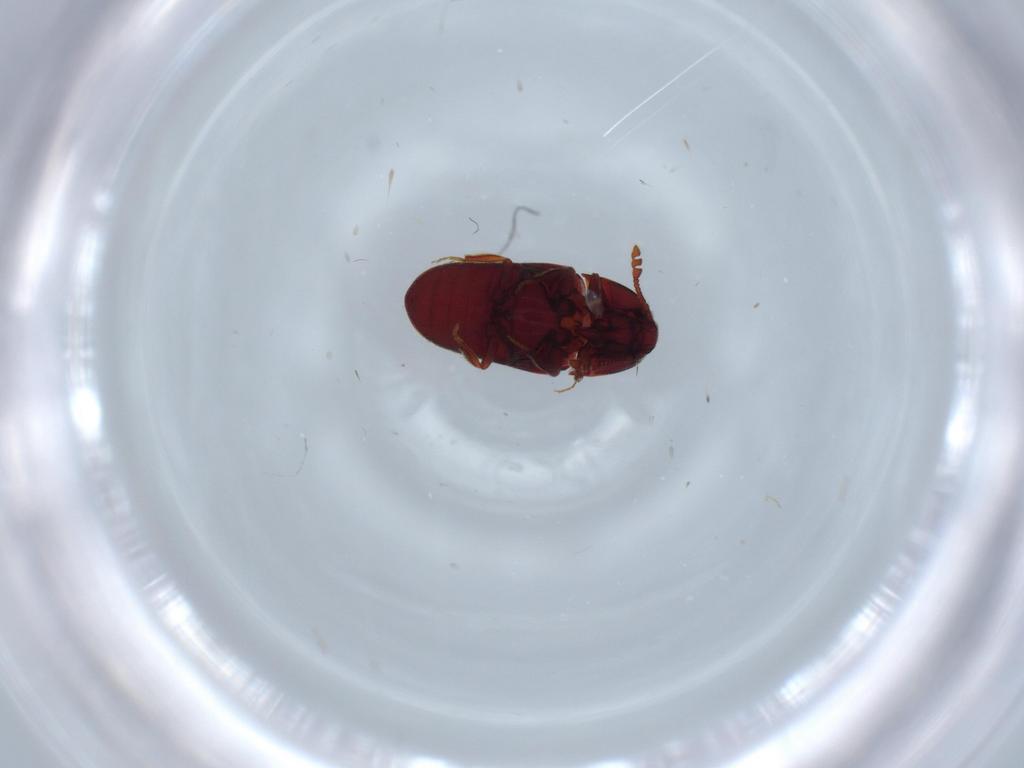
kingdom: Animalia
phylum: Arthropoda
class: Insecta
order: Coleoptera
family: Throscidae
